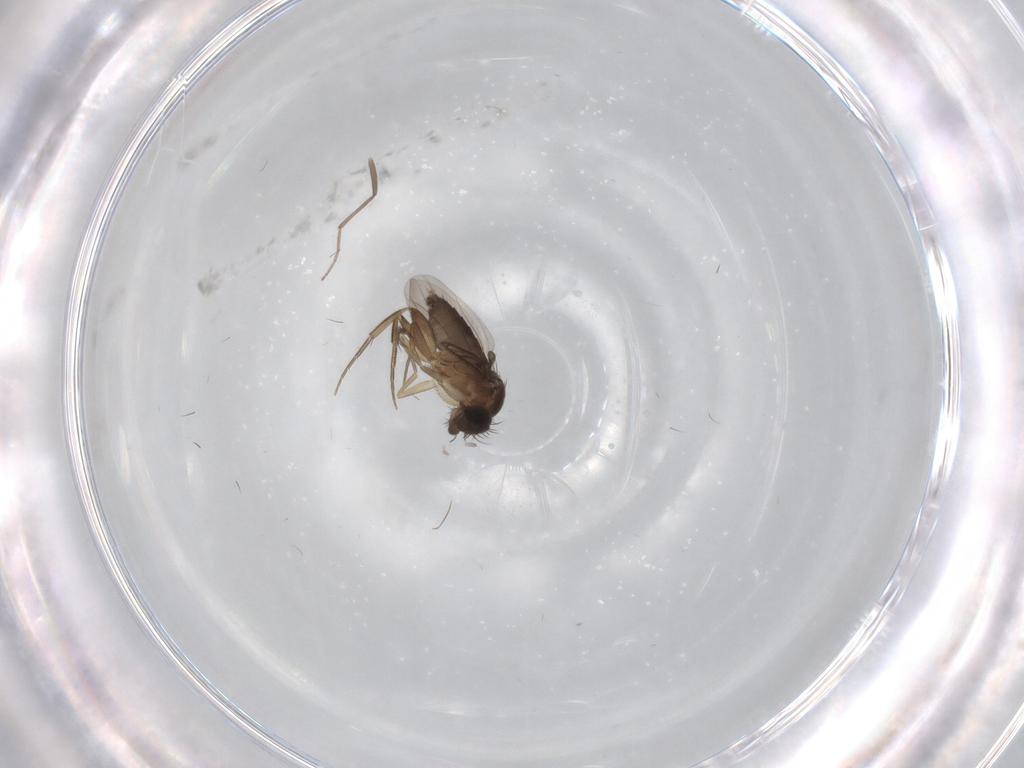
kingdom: Animalia
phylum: Arthropoda
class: Insecta
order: Diptera
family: Phoridae
